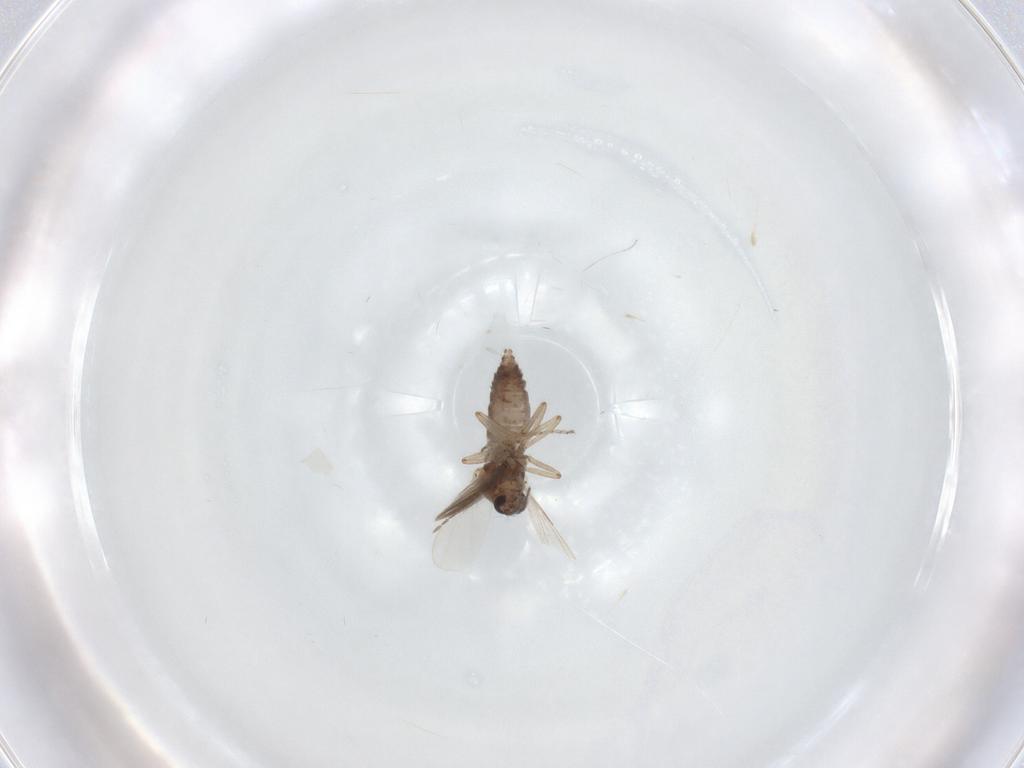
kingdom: Animalia
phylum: Arthropoda
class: Insecta
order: Diptera
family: Ceratopogonidae
